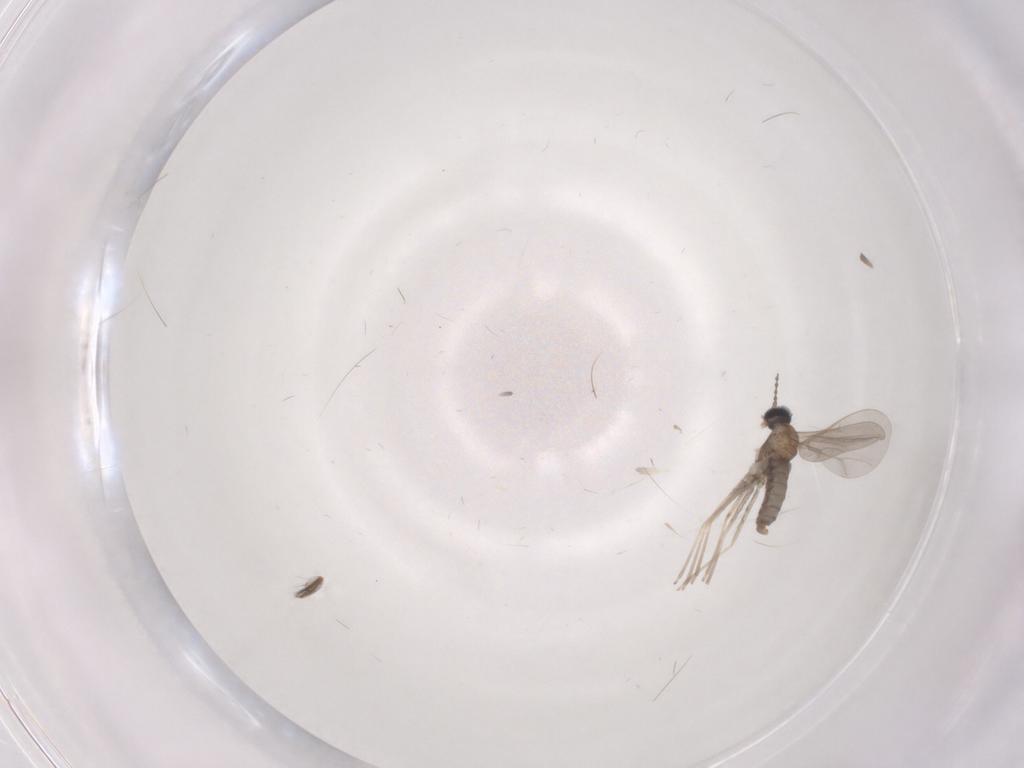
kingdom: Animalia
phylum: Arthropoda
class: Insecta
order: Diptera
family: Cecidomyiidae
